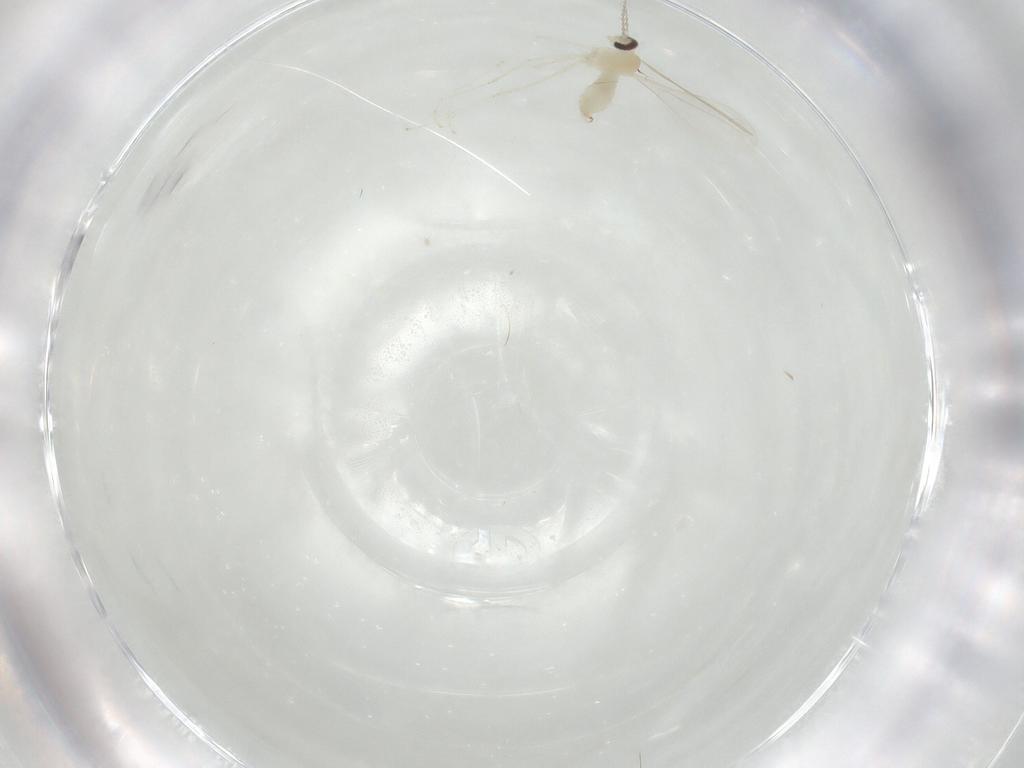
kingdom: Animalia
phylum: Arthropoda
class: Insecta
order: Diptera
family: Cecidomyiidae
